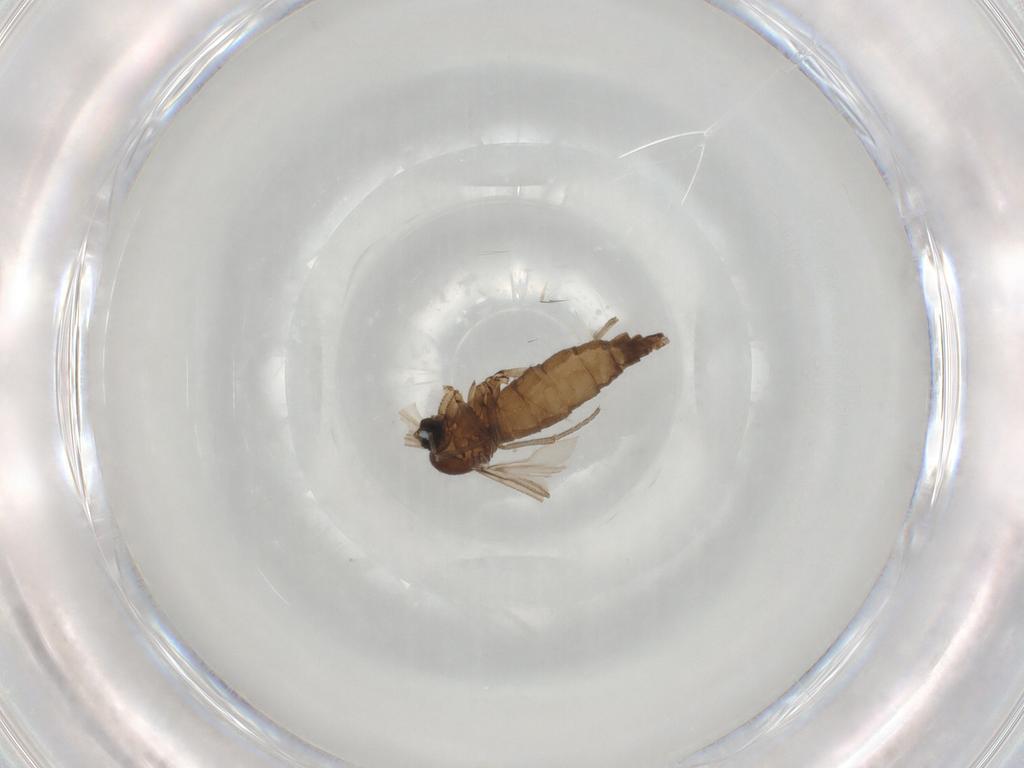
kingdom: Animalia
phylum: Arthropoda
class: Insecta
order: Diptera
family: Sciaridae
